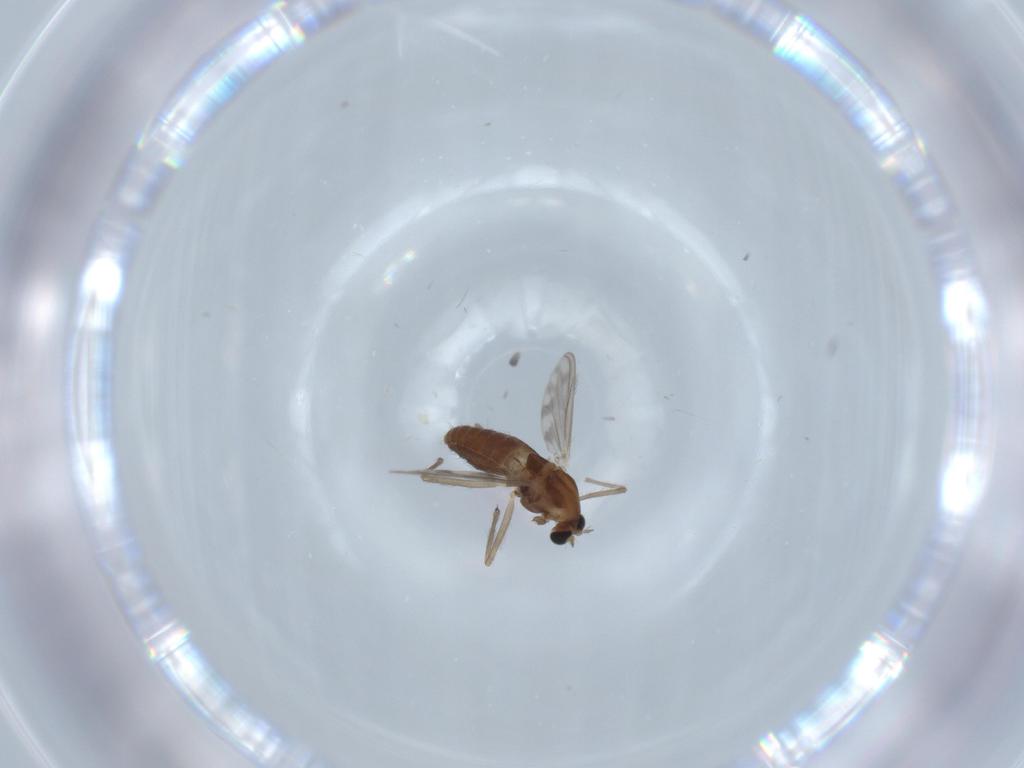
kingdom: Animalia
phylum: Arthropoda
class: Insecta
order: Diptera
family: Chironomidae
